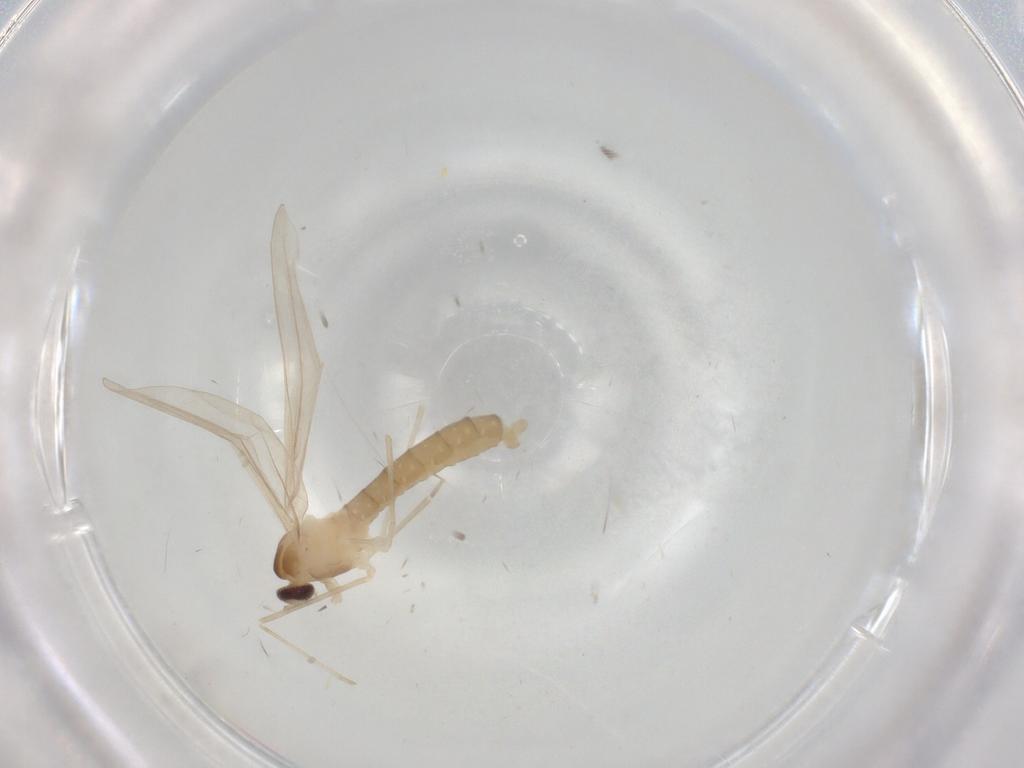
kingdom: Animalia
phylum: Arthropoda
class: Insecta
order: Diptera
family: Cecidomyiidae
